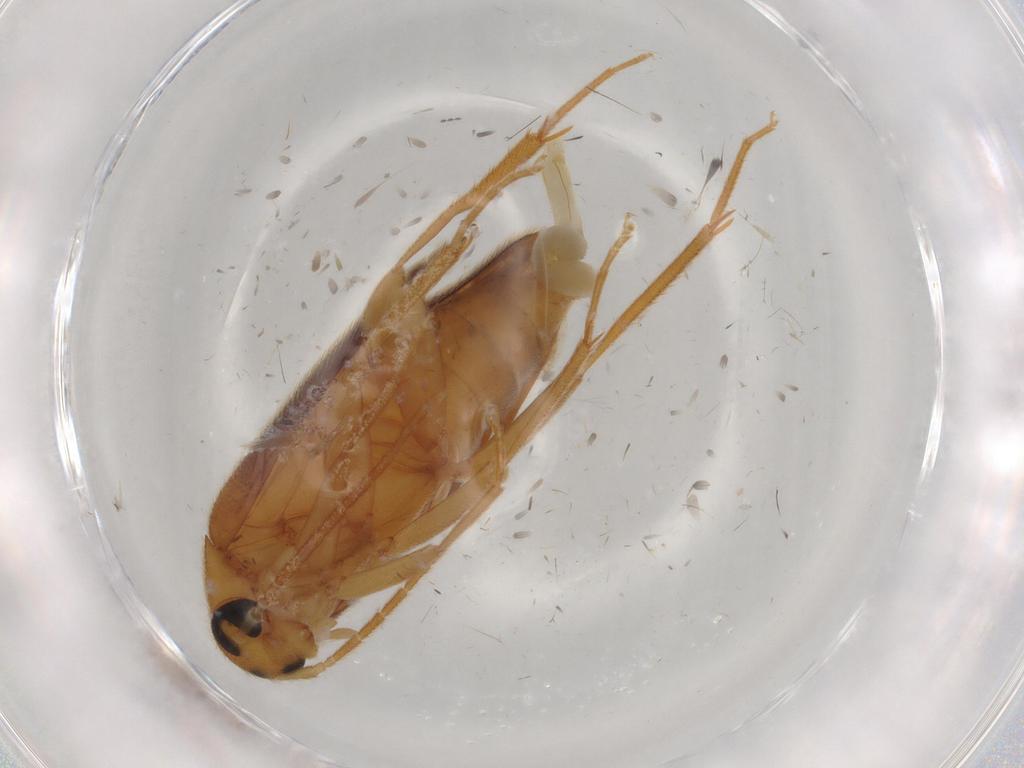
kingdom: Animalia
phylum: Arthropoda
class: Insecta
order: Coleoptera
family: Scraptiidae
